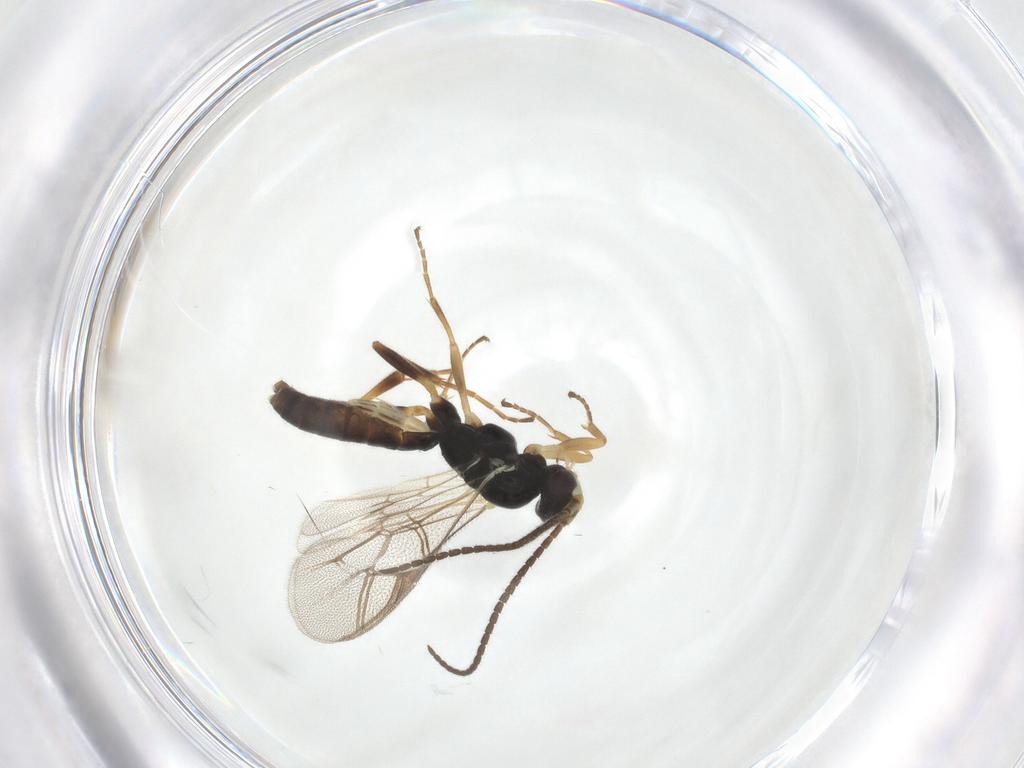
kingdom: Animalia
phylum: Arthropoda
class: Insecta
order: Hymenoptera
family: Ichneumonidae
